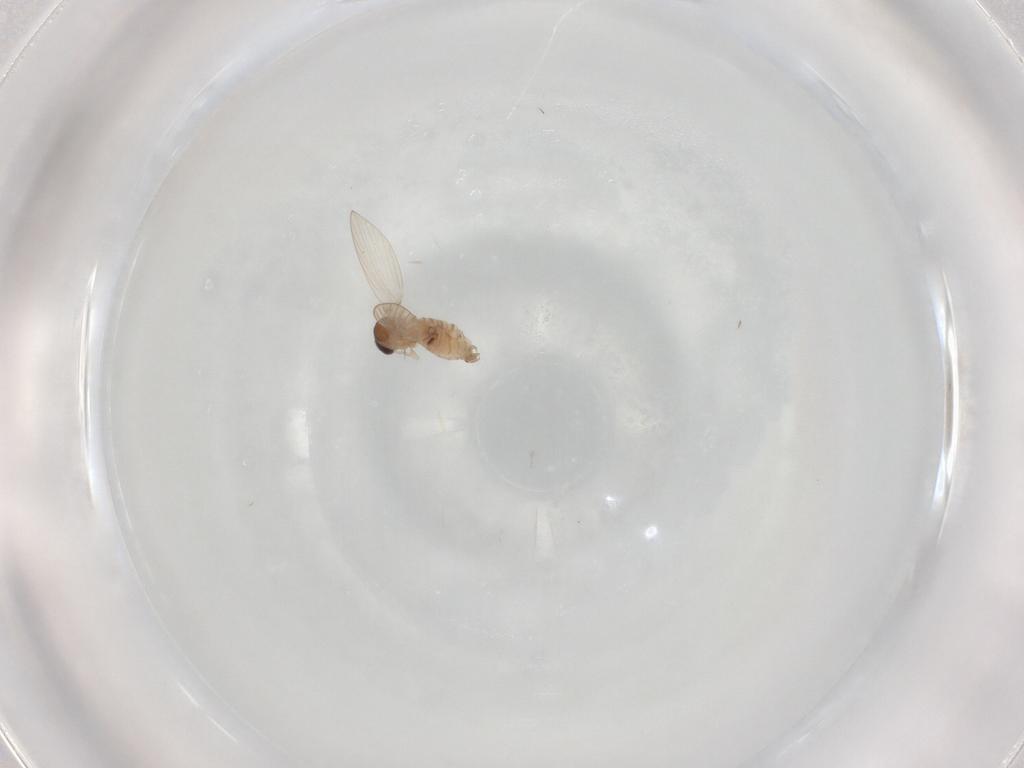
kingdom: Animalia
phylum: Arthropoda
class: Insecta
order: Diptera
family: Psychodidae
